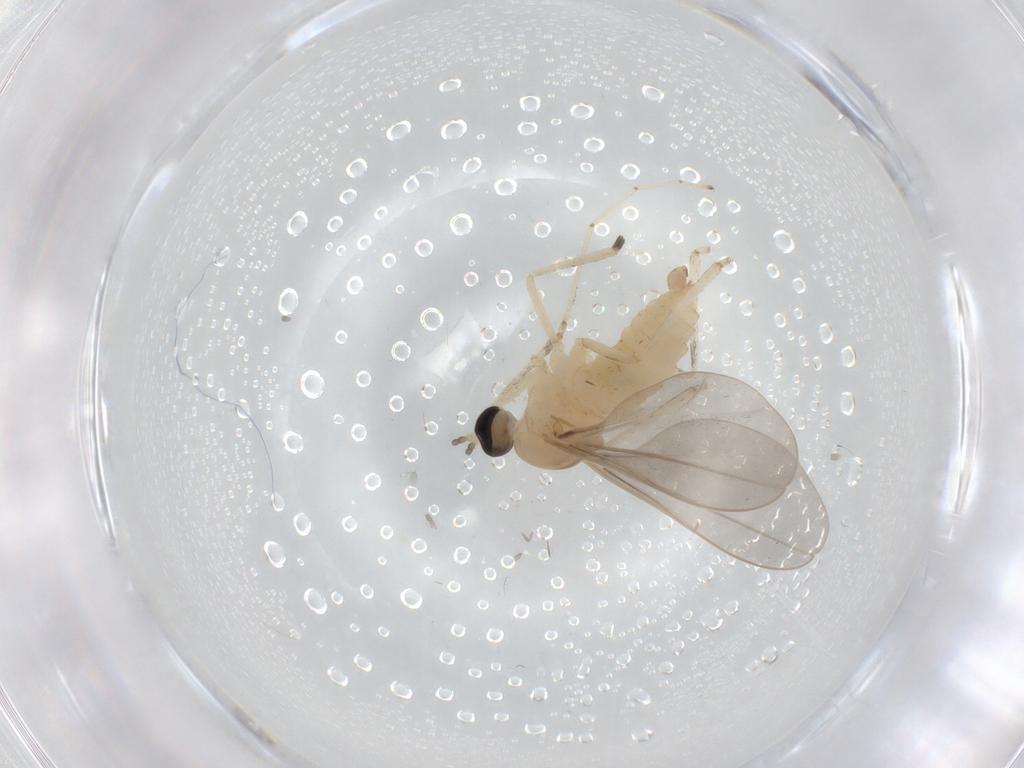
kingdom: Animalia
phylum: Arthropoda
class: Insecta
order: Diptera
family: Cecidomyiidae
